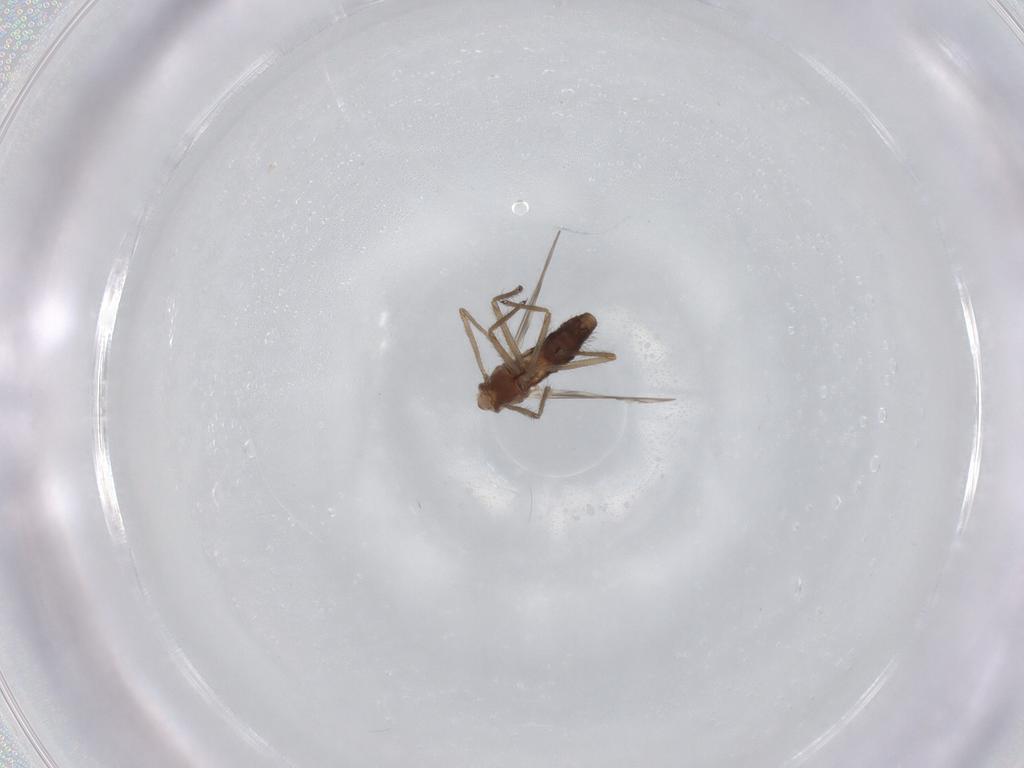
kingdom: Animalia
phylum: Arthropoda
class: Insecta
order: Diptera
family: Chironomidae
